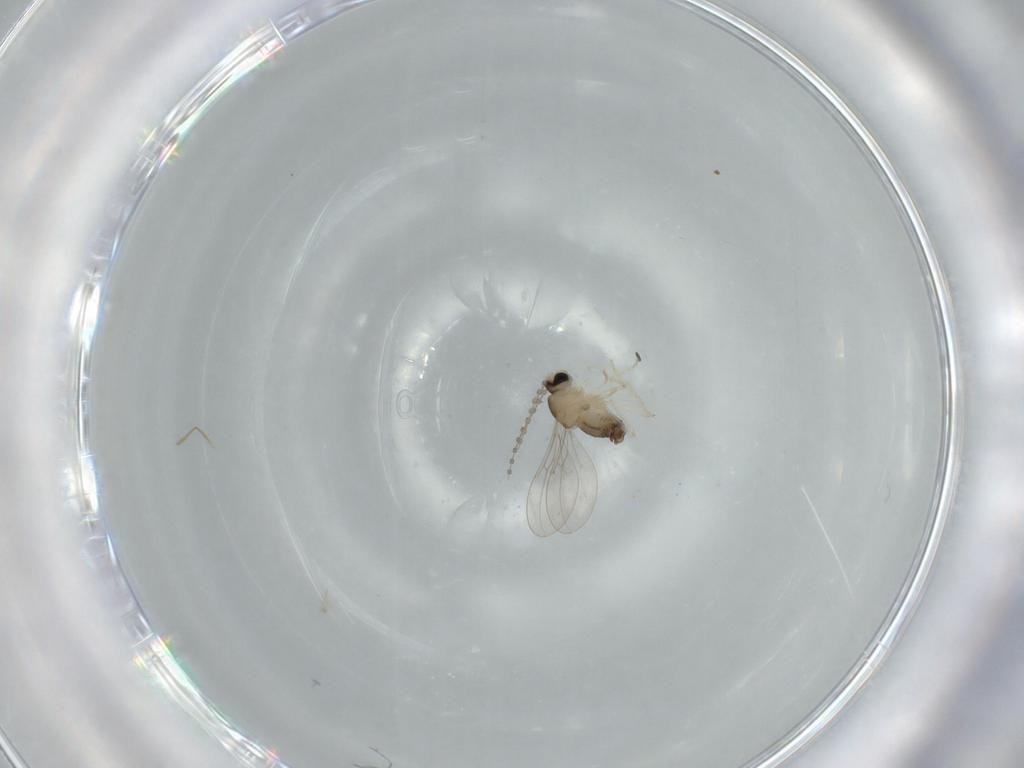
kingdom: Animalia
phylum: Arthropoda
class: Insecta
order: Diptera
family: Cecidomyiidae
